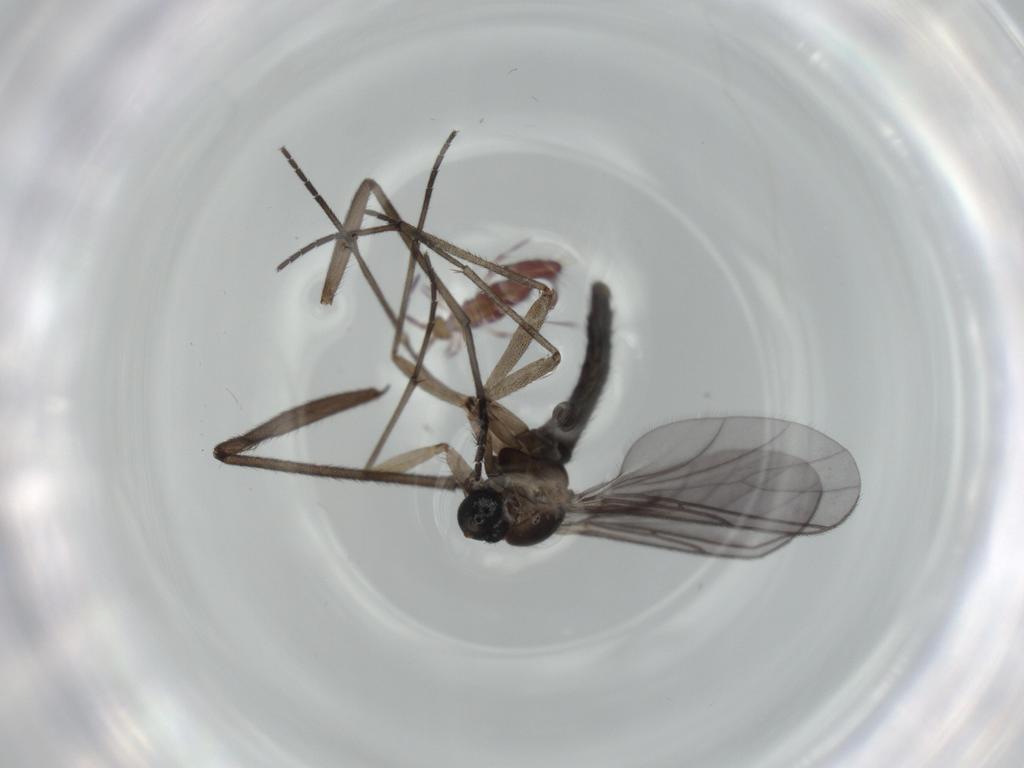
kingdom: Animalia
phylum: Arthropoda
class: Insecta
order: Diptera
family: Sciaridae
